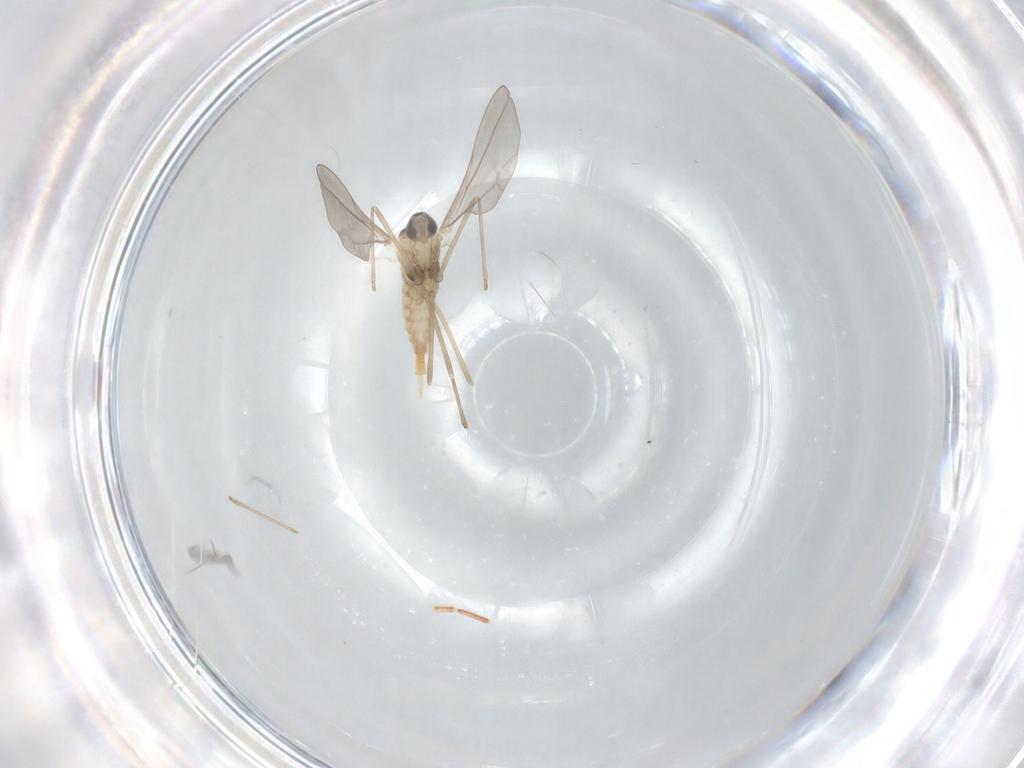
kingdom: Animalia
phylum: Arthropoda
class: Insecta
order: Diptera
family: Cecidomyiidae
